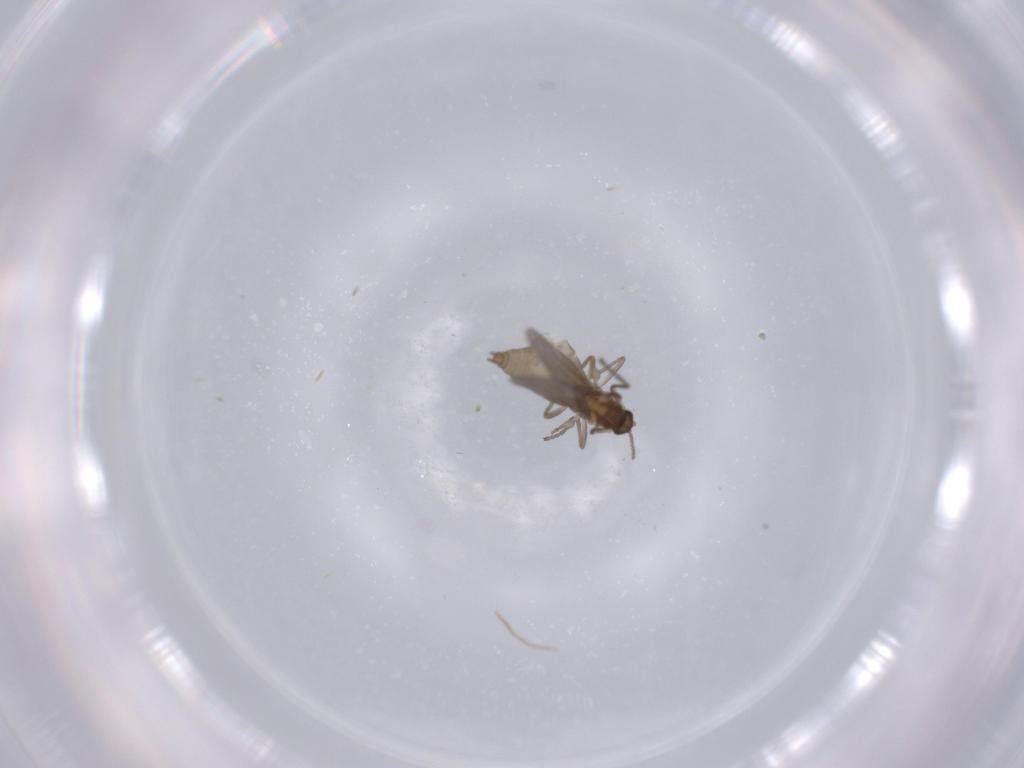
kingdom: Animalia
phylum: Arthropoda
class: Insecta
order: Diptera
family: Cecidomyiidae
